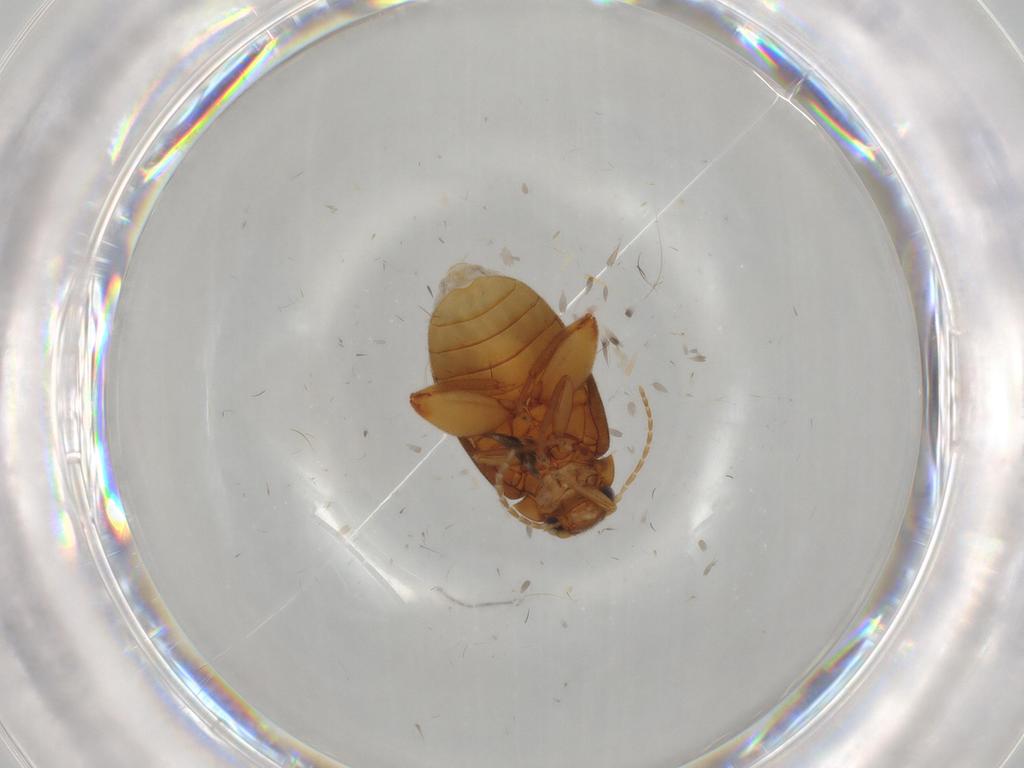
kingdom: Animalia
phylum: Arthropoda
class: Insecta
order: Coleoptera
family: Scirtidae
